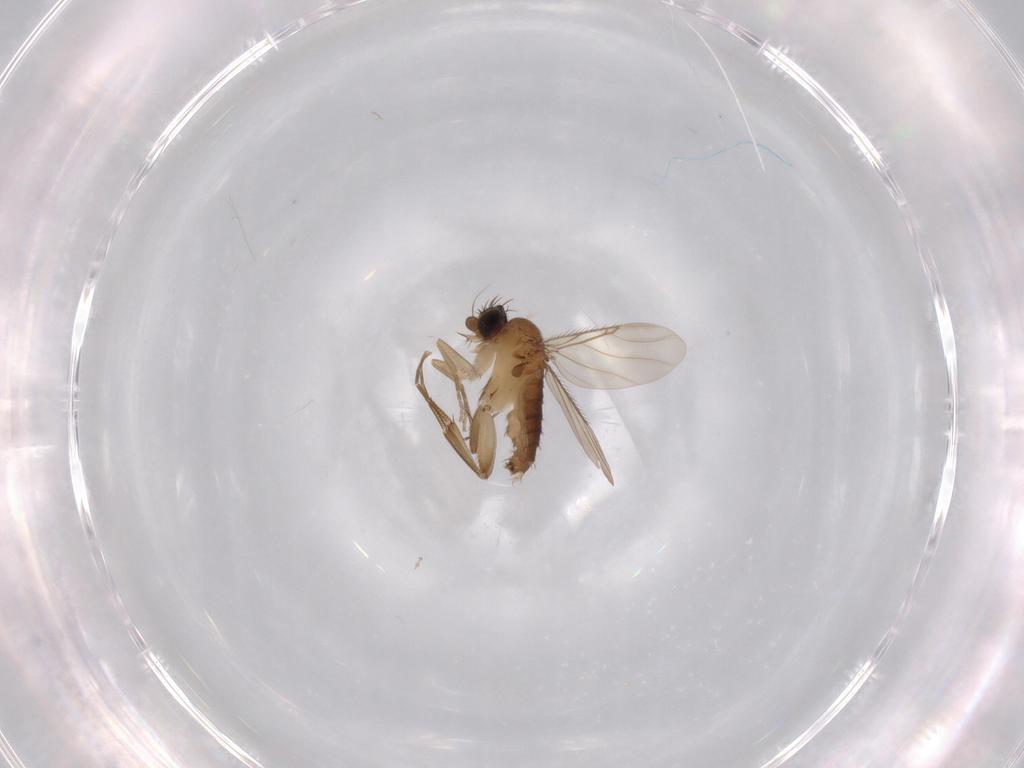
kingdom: Animalia
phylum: Arthropoda
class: Insecta
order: Diptera
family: Phoridae
